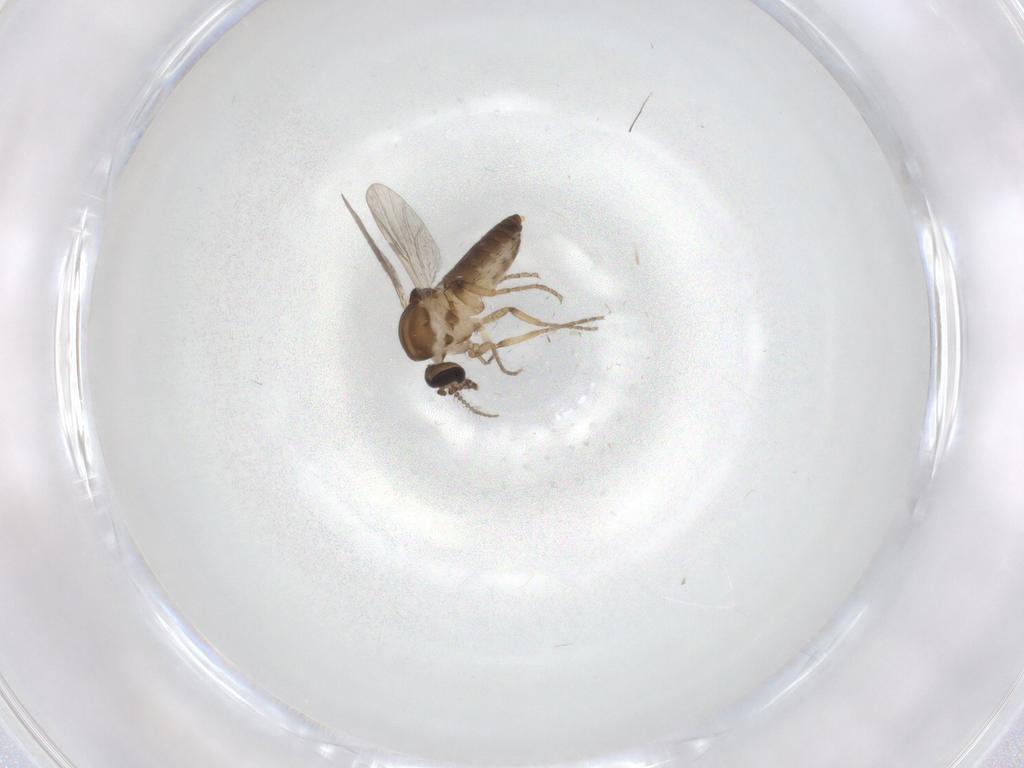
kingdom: Animalia
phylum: Arthropoda
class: Insecta
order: Diptera
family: Ceratopogonidae
